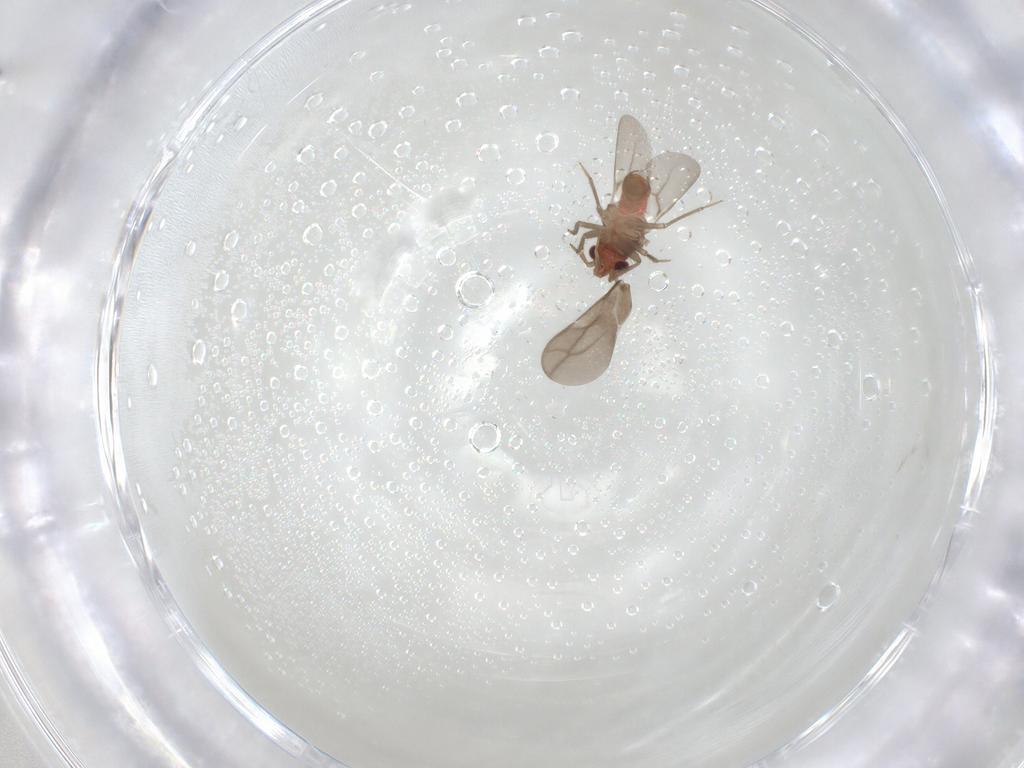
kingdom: Animalia
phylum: Arthropoda
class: Insecta
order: Hemiptera
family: Ceratocombidae
